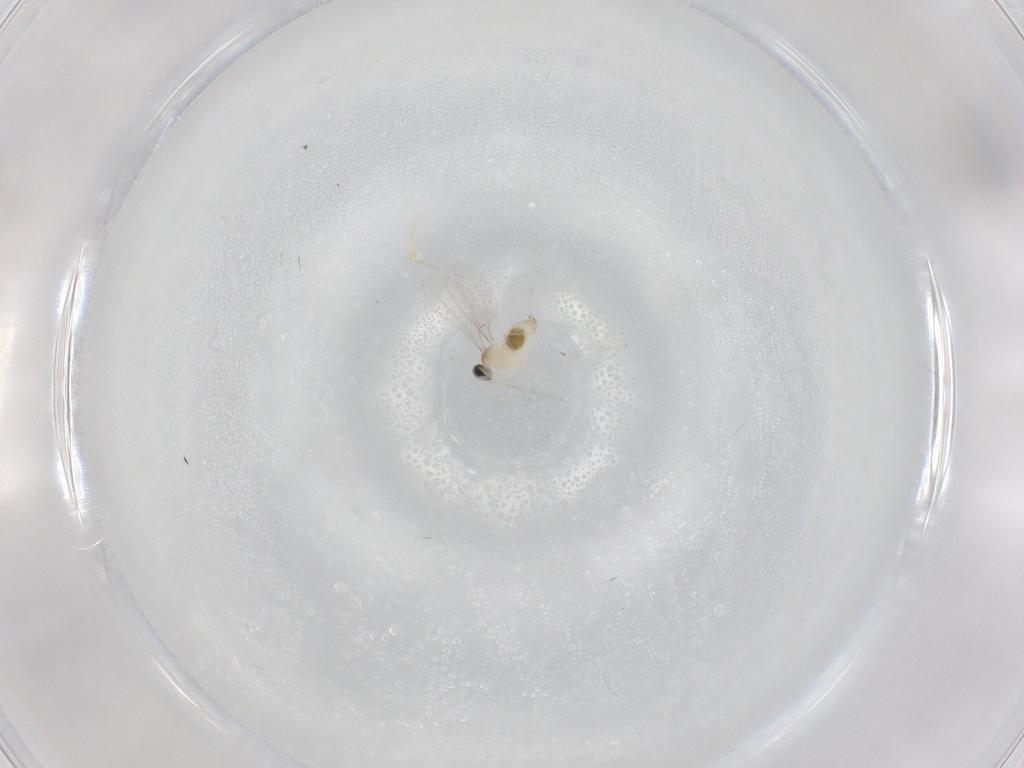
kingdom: Animalia
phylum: Arthropoda
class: Insecta
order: Diptera
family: Cecidomyiidae
